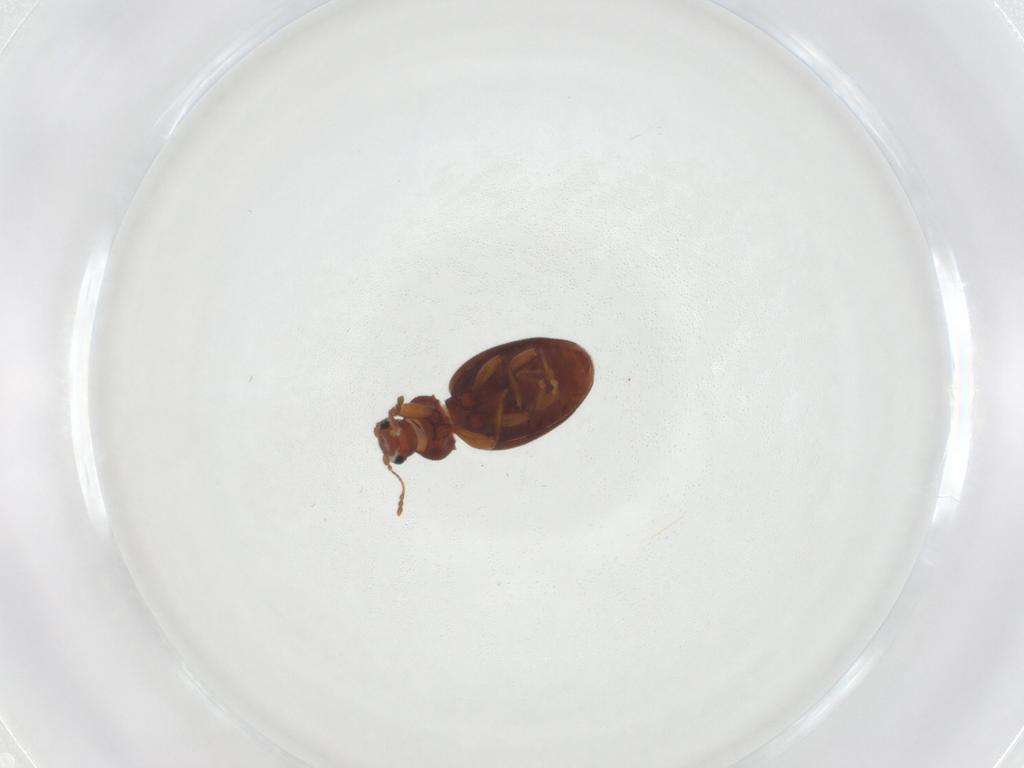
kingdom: Animalia
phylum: Arthropoda
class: Insecta
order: Coleoptera
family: Latridiidae
